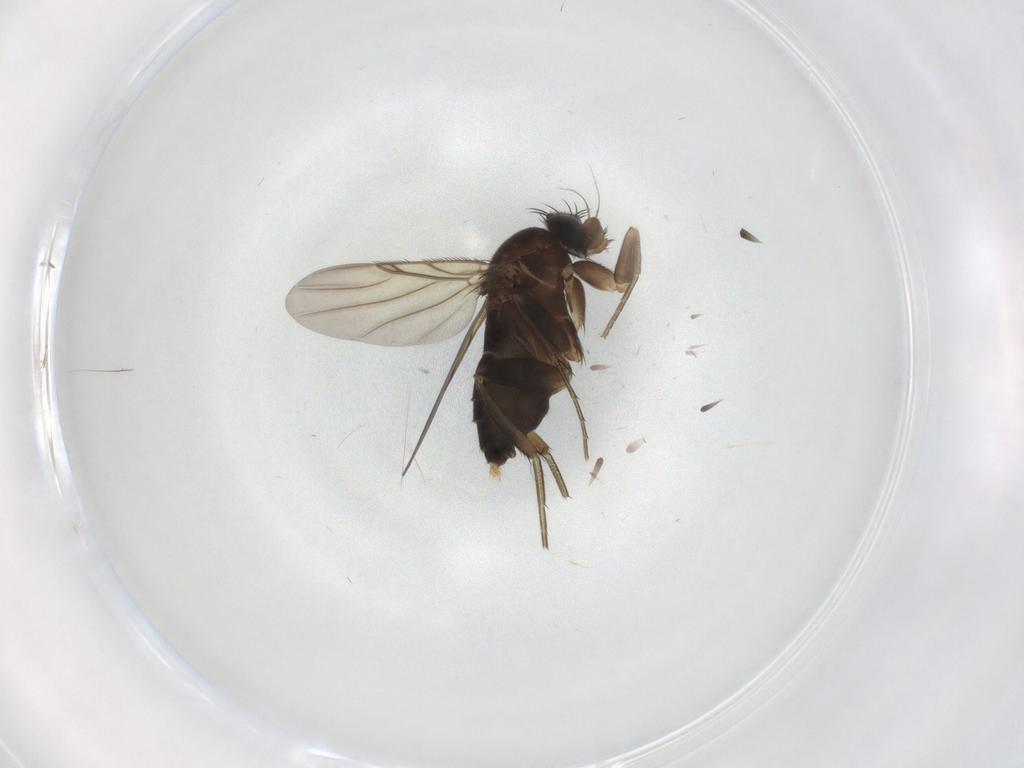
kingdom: Animalia
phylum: Arthropoda
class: Insecta
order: Diptera
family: Phoridae
